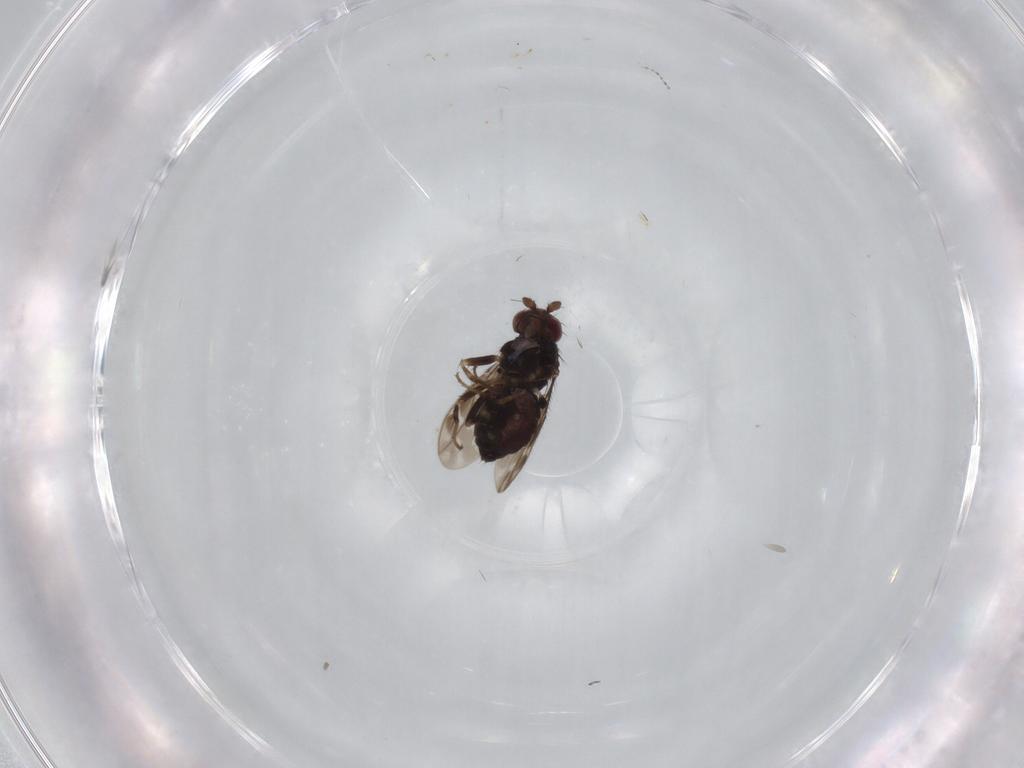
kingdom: Animalia
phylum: Arthropoda
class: Insecta
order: Diptera
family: Sphaeroceridae
